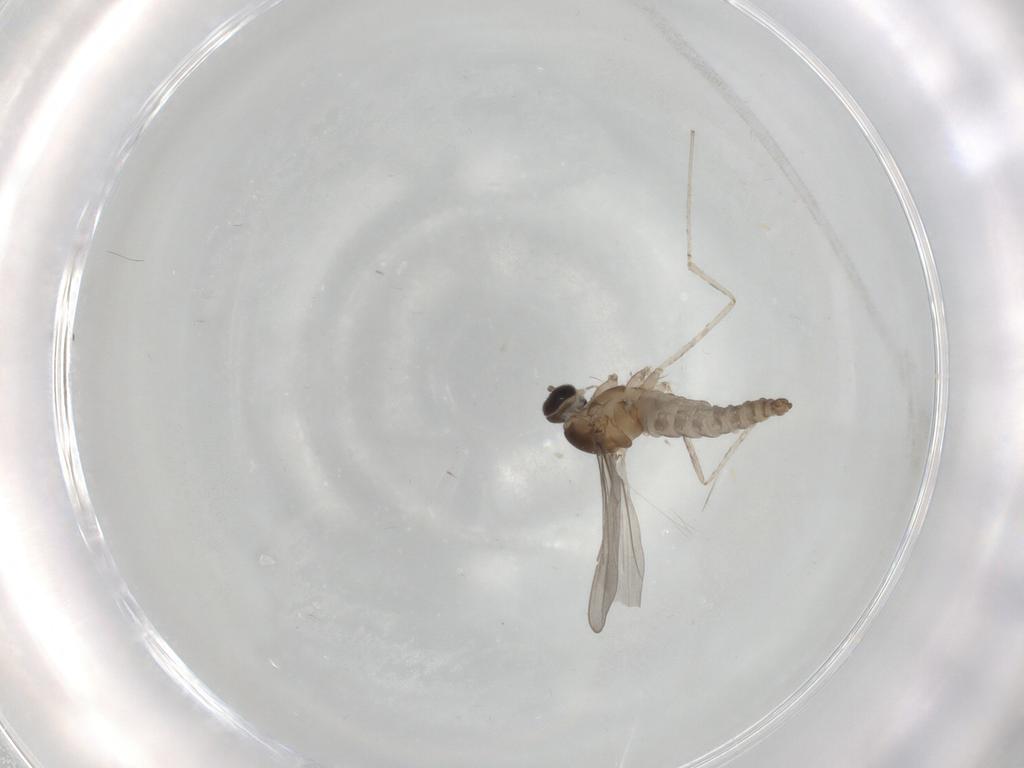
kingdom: Animalia
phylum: Arthropoda
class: Insecta
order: Diptera
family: Cecidomyiidae
